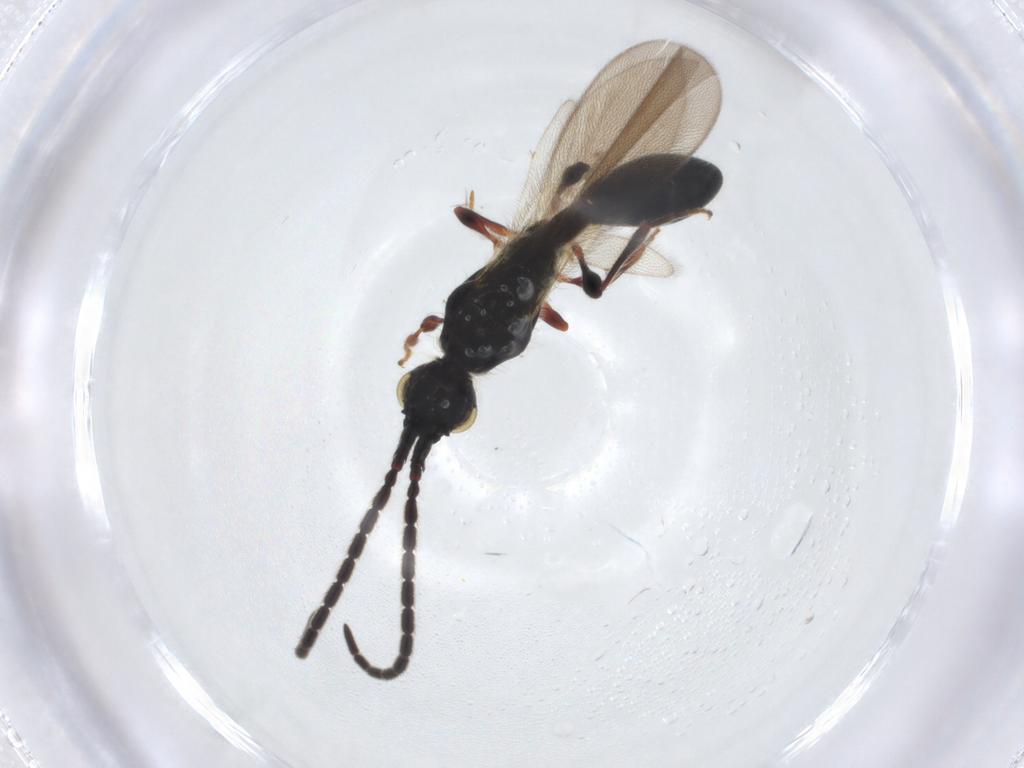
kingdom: Animalia
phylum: Arthropoda
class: Insecta
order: Hymenoptera
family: Diapriidae
